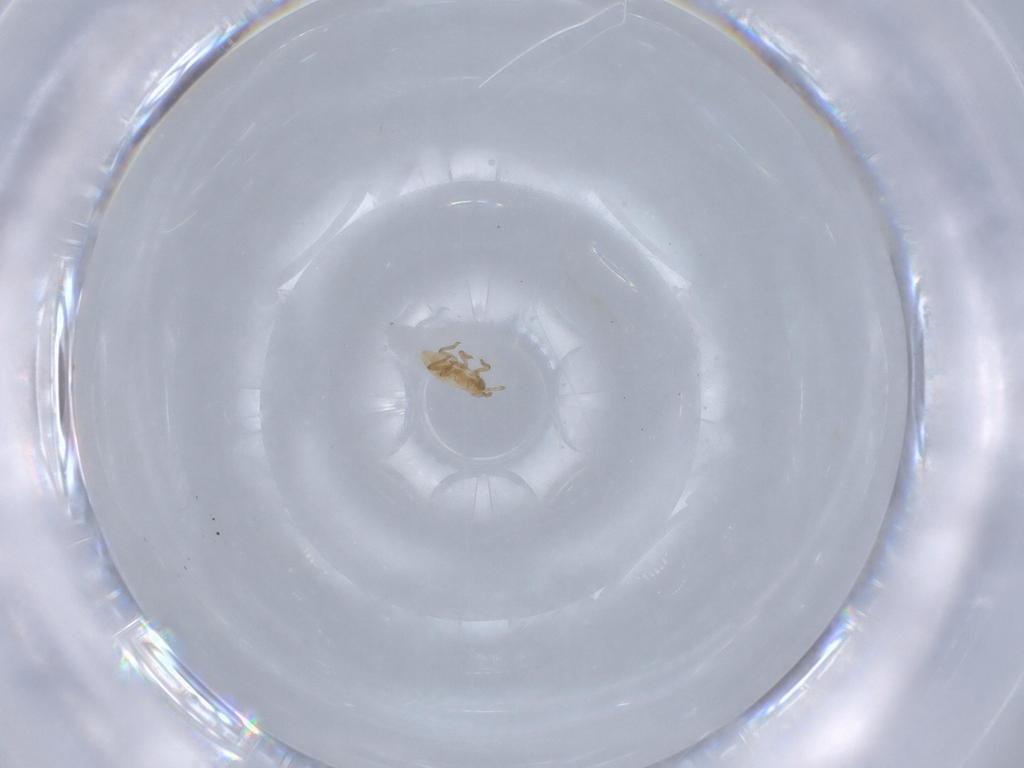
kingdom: Animalia
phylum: Arthropoda
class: Insecta
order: Hemiptera
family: Aphididae
